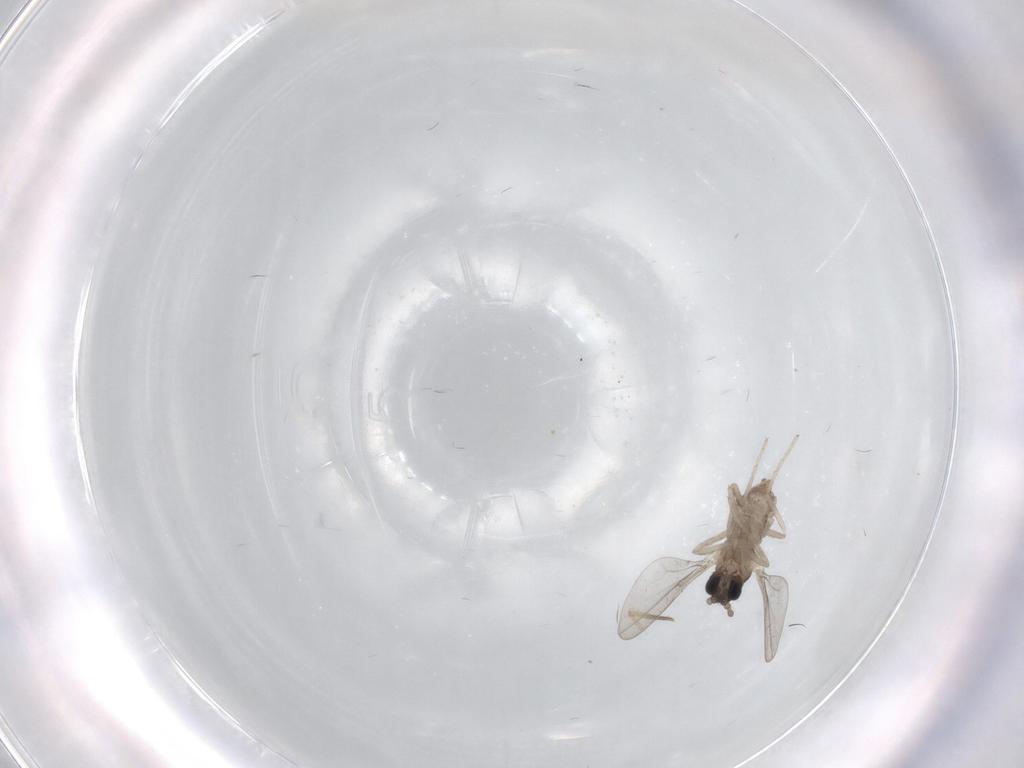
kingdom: Animalia
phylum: Arthropoda
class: Insecta
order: Diptera
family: Cecidomyiidae
